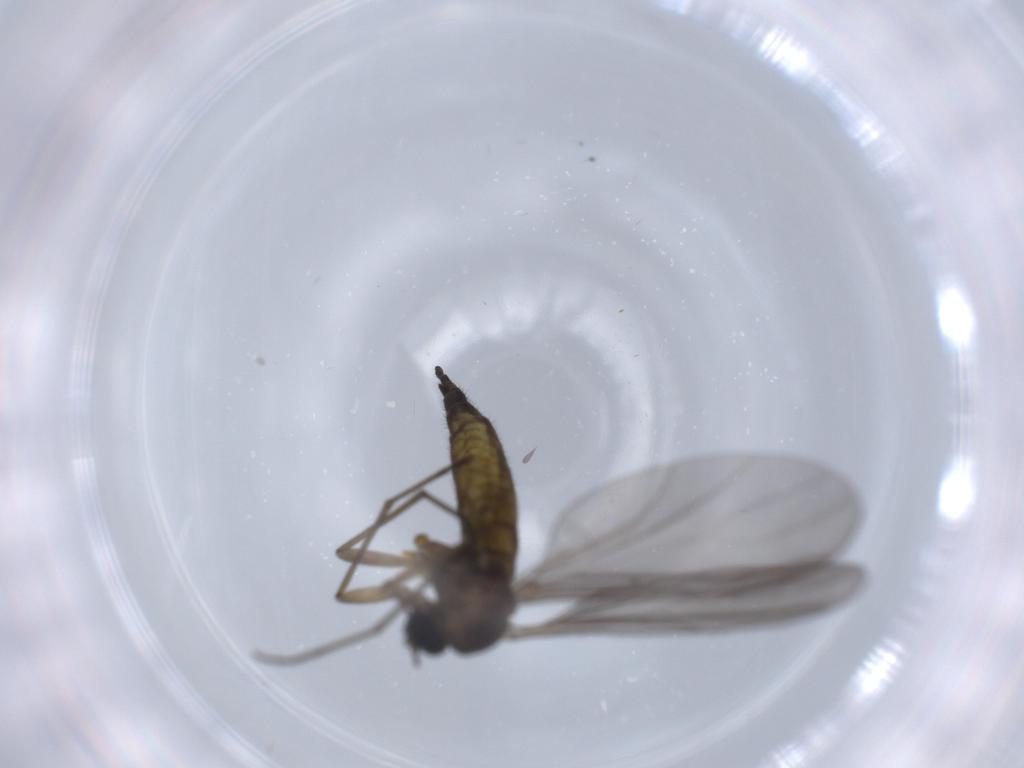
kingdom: Animalia
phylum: Arthropoda
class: Insecta
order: Diptera
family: Sciaridae
